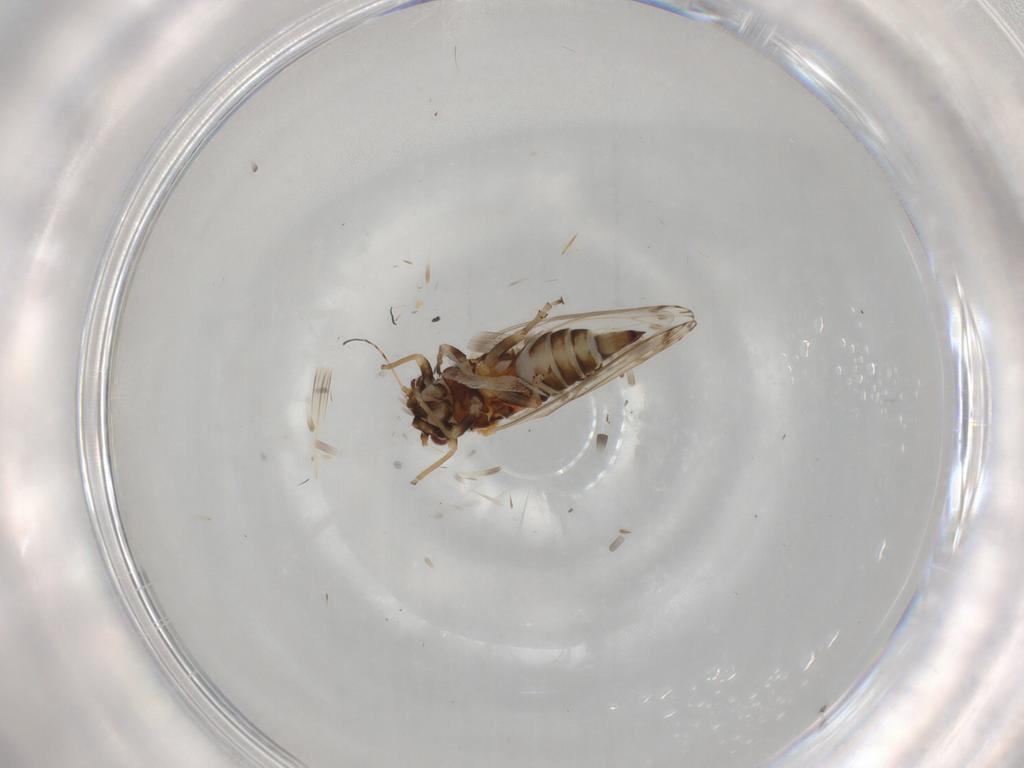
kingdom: Animalia
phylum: Arthropoda
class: Insecta
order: Hemiptera
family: Psyllidae
